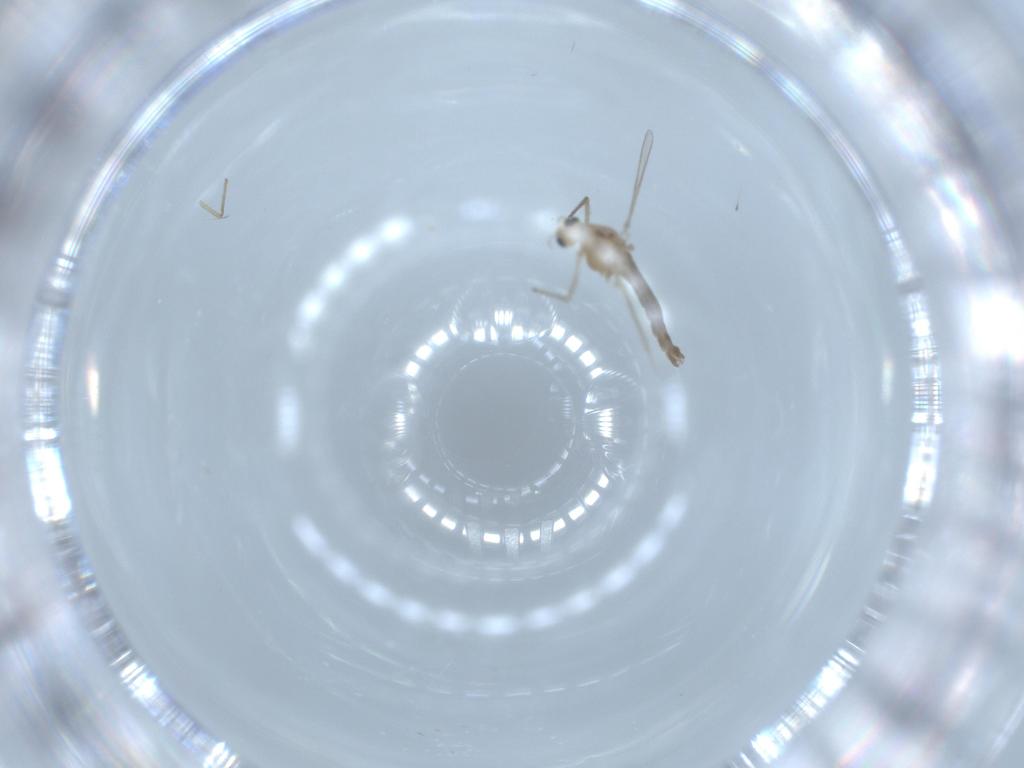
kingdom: Animalia
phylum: Arthropoda
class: Insecta
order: Diptera
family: Chironomidae
